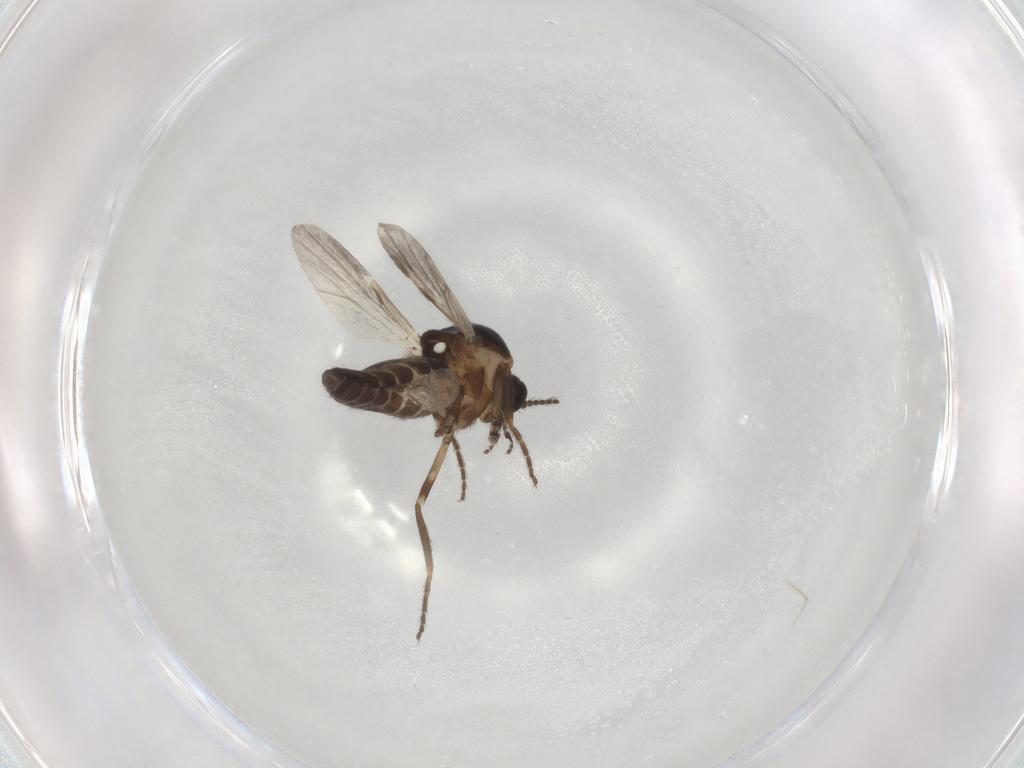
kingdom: Animalia
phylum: Arthropoda
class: Insecta
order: Diptera
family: Ceratopogonidae
